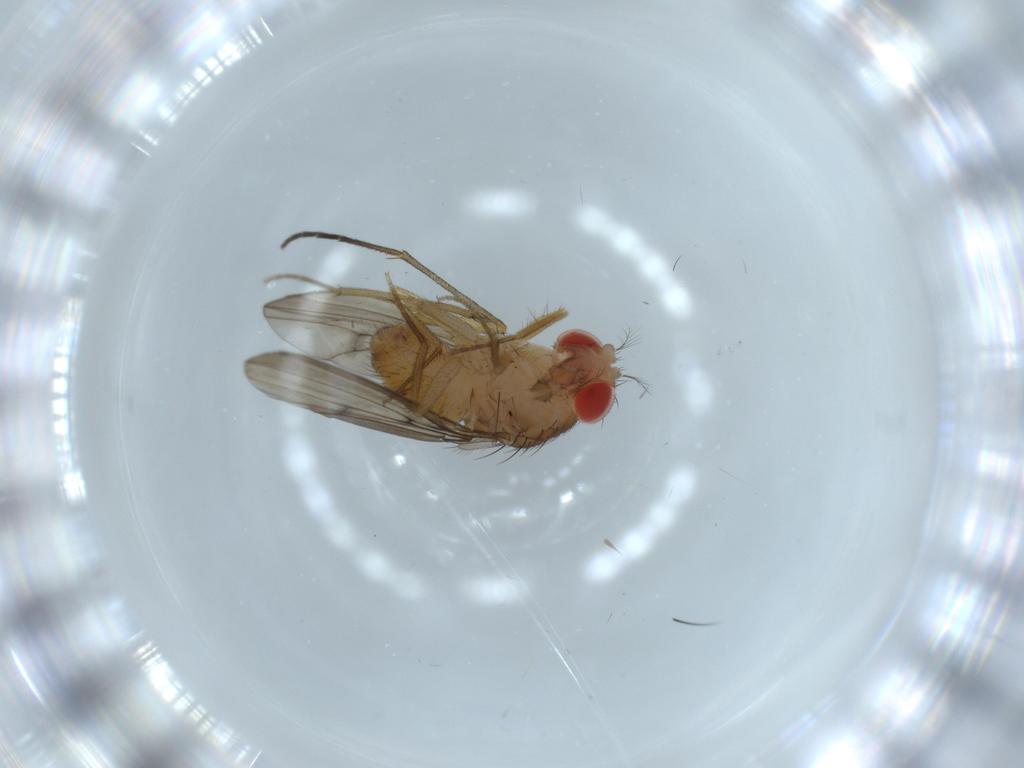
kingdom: Animalia
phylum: Arthropoda
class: Insecta
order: Diptera
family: Drosophilidae
